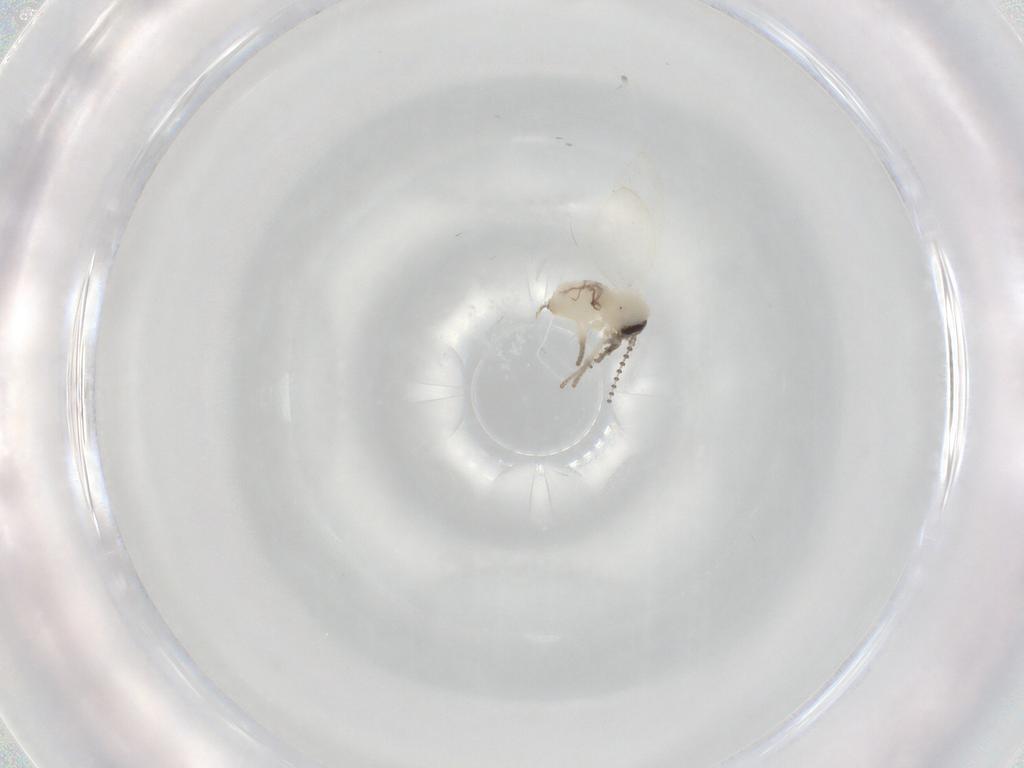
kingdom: Animalia
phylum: Arthropoda
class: Insecta
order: Diptera
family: Psychodidae
